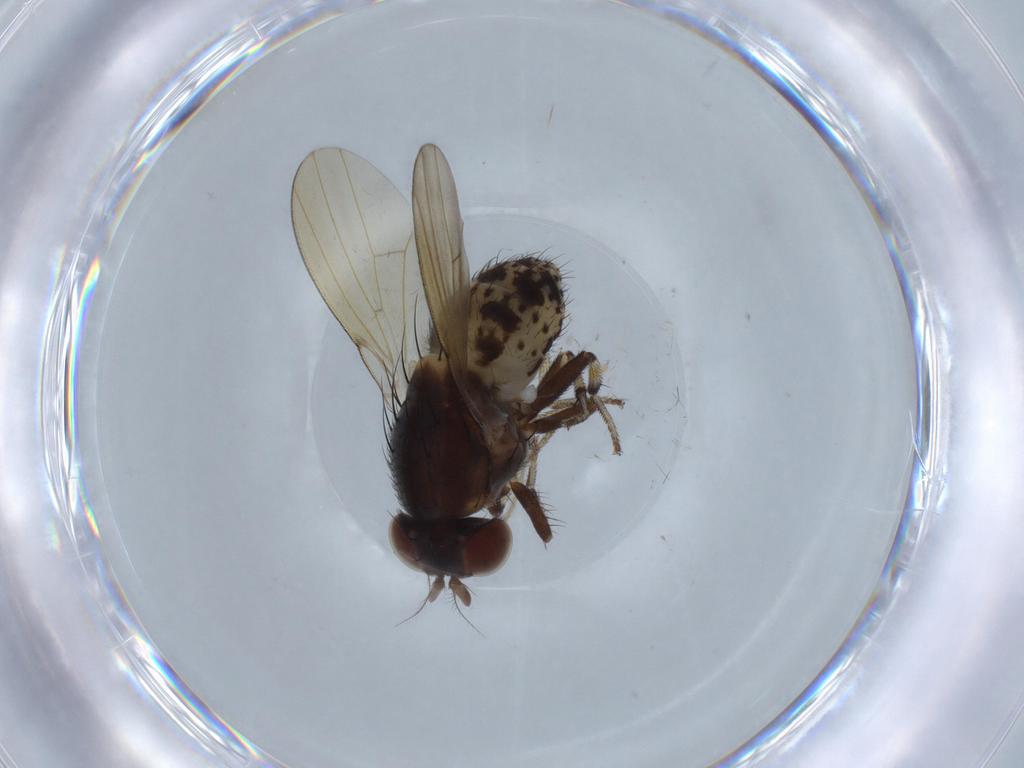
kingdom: Animalia
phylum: Arthropoda
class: Insecta
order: Diptera
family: Chironomidae
